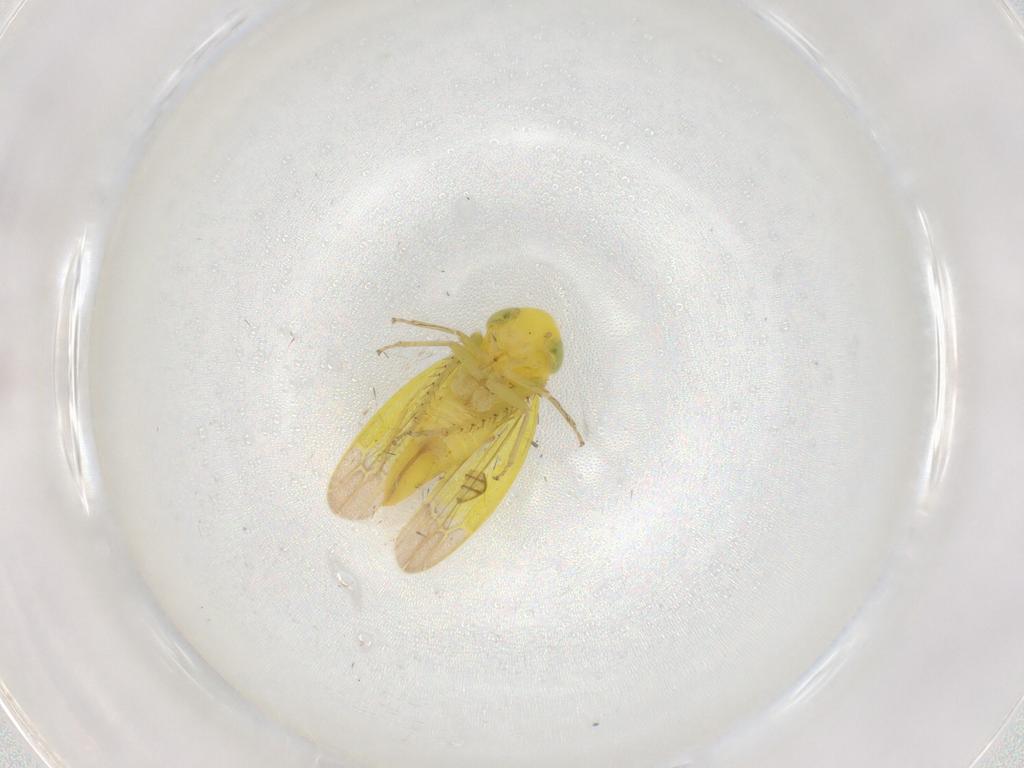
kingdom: Animalia
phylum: Arthropoda
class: Insecta
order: Hemiptera
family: Cicadellidae
